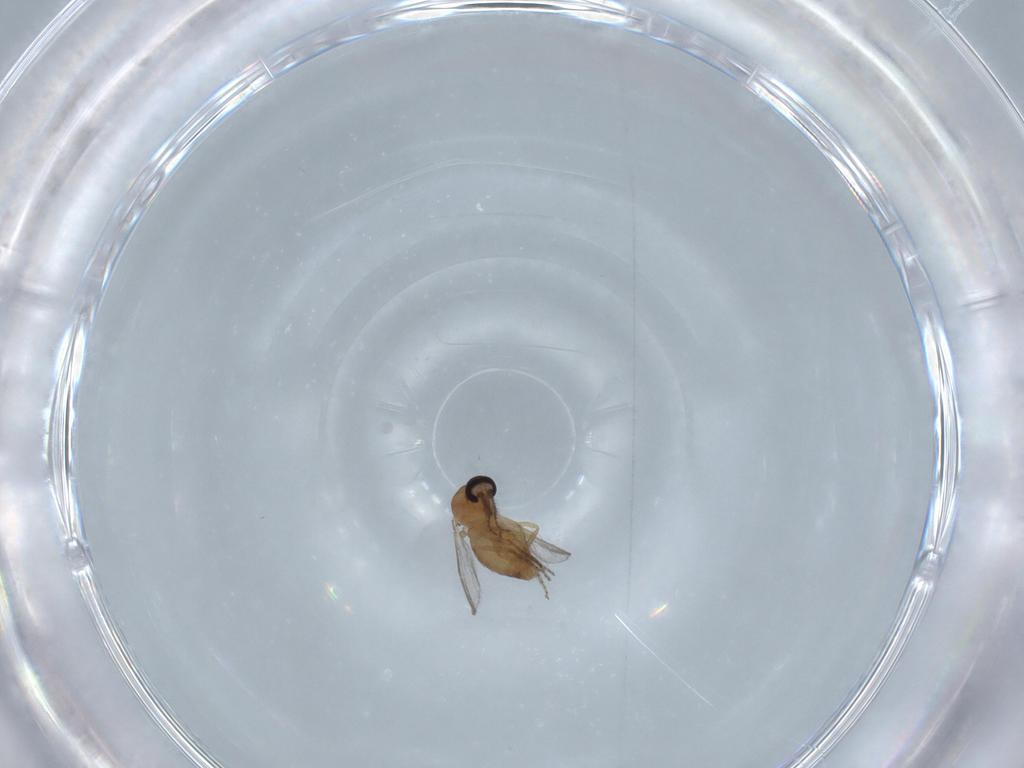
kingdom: Animalia
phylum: Arthropoda
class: Insecta
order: Diptera
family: Ceratopogonidae
